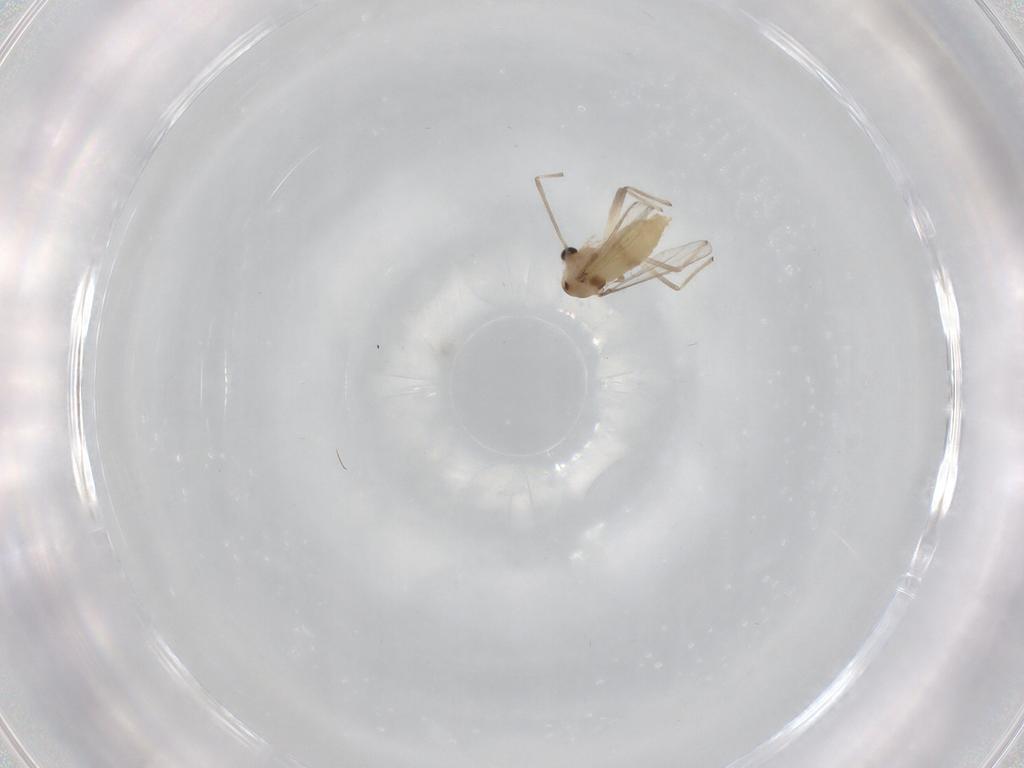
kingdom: Animalia
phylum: Arthropoda
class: Insecta
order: Diptera
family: Chironomidae
